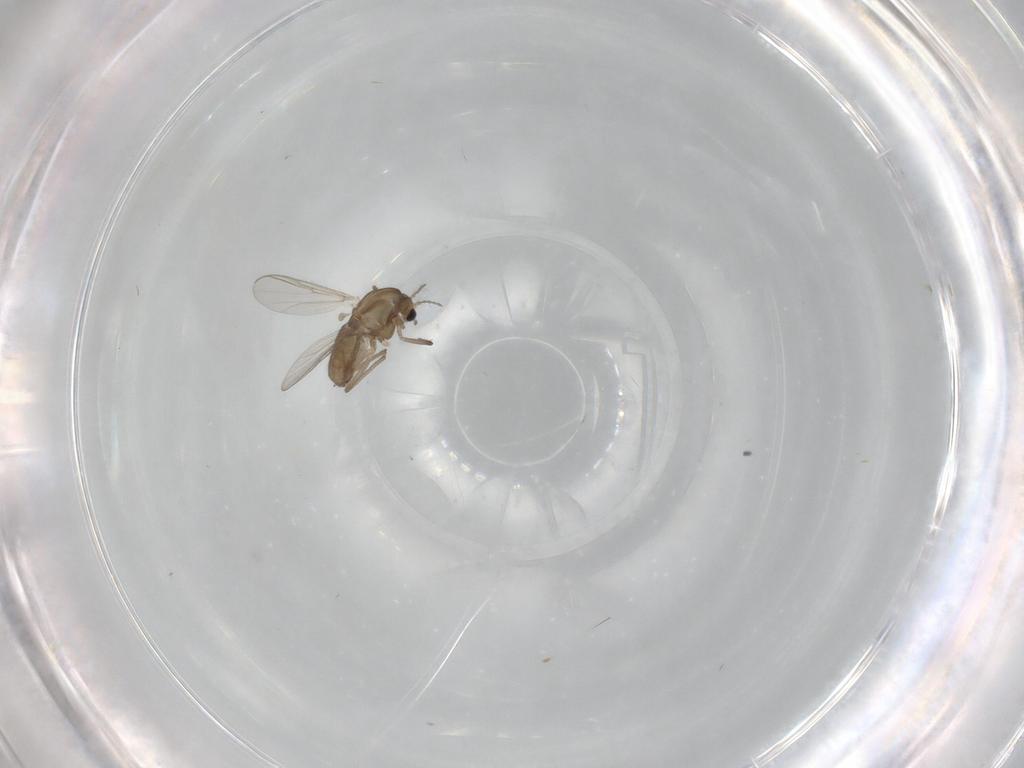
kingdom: Animalia
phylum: Arthropoda
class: Insecta
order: Diptera
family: Chironomidae
